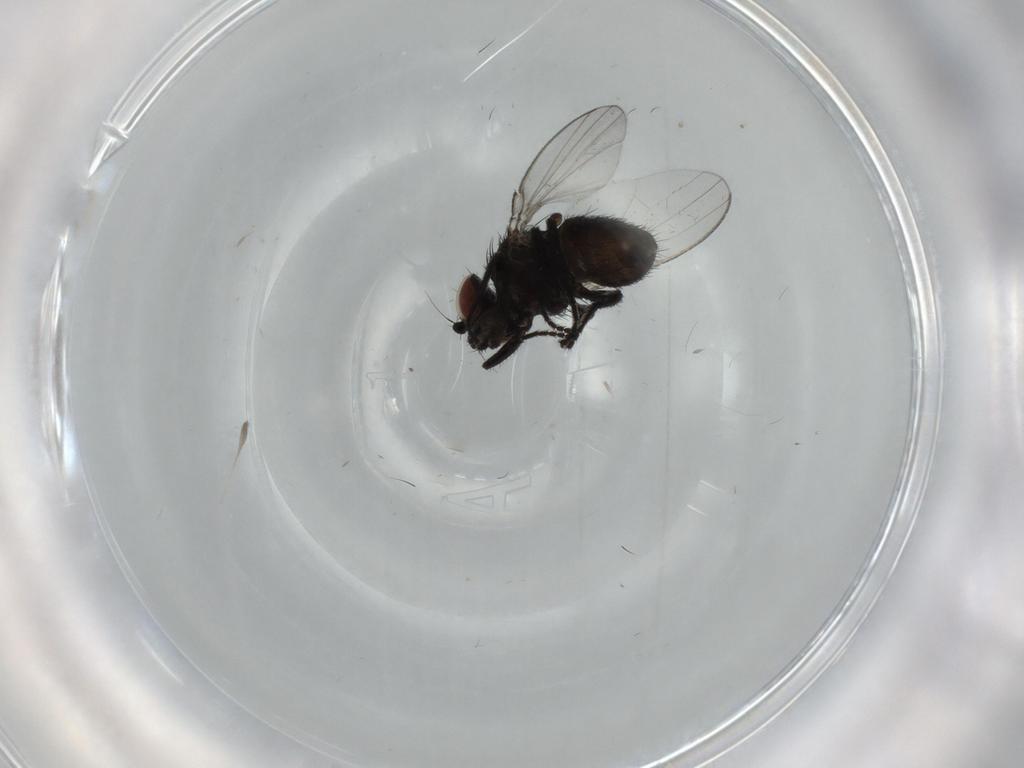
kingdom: Animalia
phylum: Arthropoda
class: Insecta
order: Diptera
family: Milichiidae
